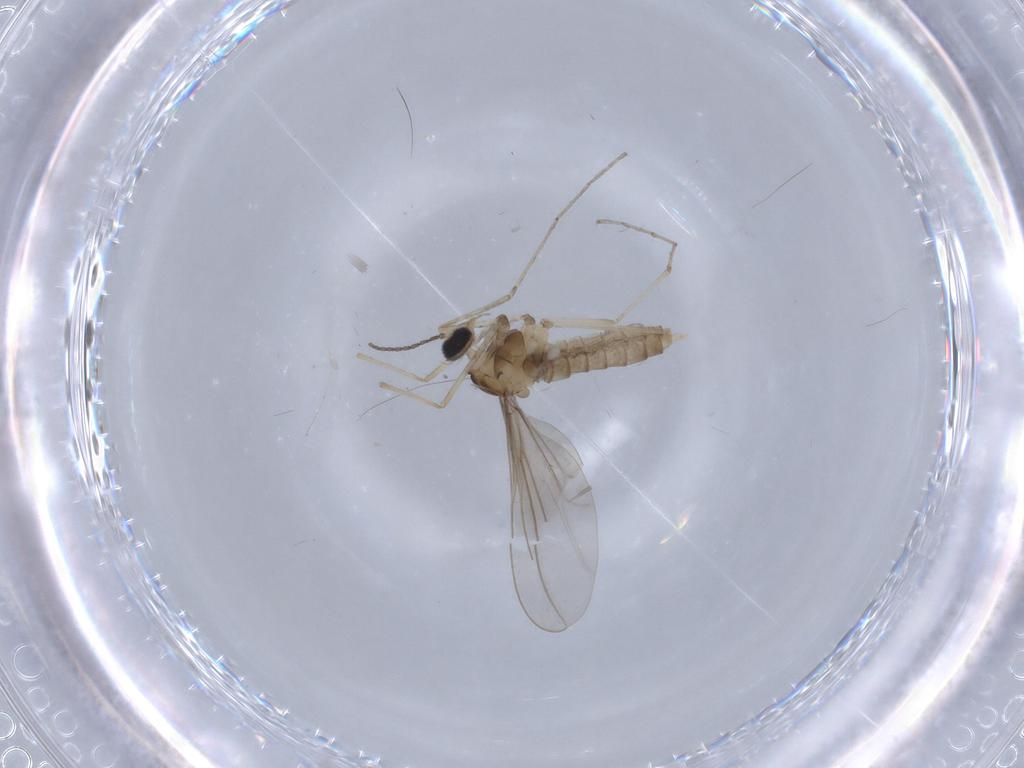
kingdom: Animalia
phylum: Arthropoda
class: Insecta
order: Diptera
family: Cecidomyiidae
